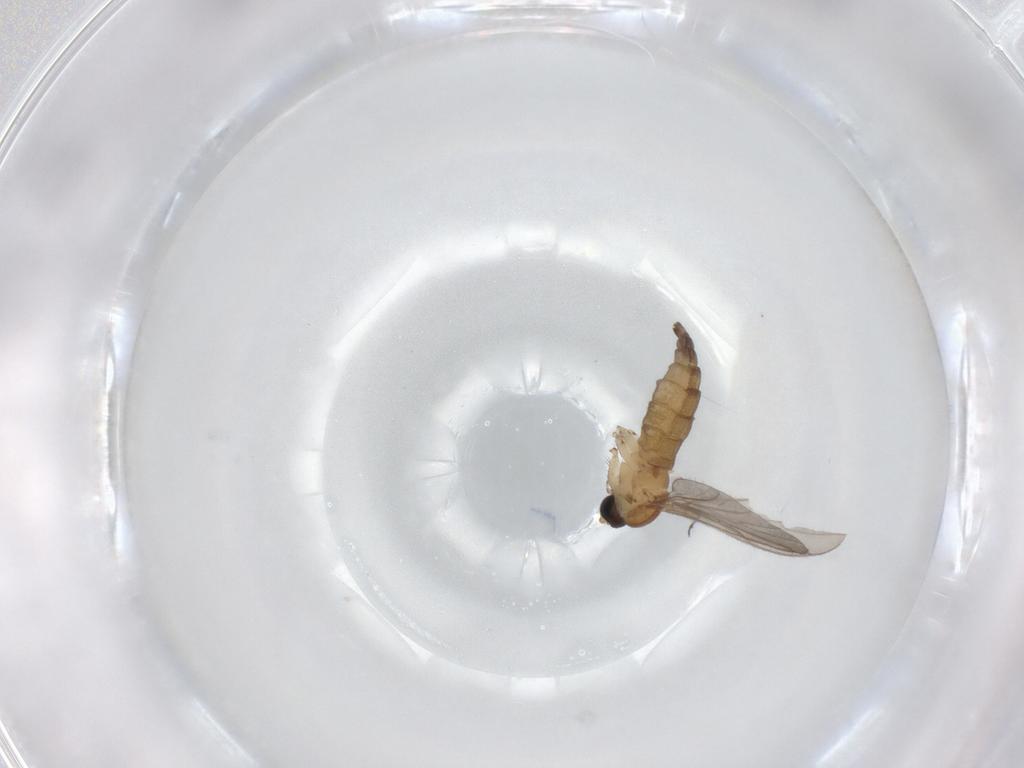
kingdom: Animalia
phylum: Arthropoda
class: Insecta
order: Diptera
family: Sciaridae
